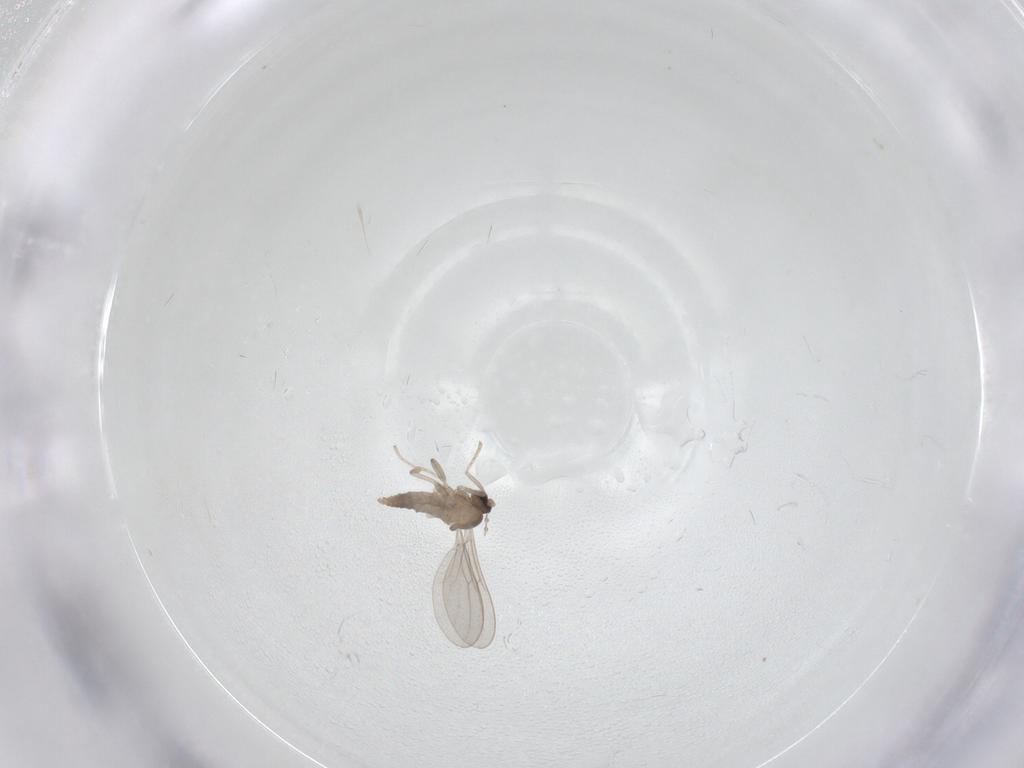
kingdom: Animalia
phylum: Arthropoda
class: Insecta
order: Diptera
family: Cecidomyiidae
